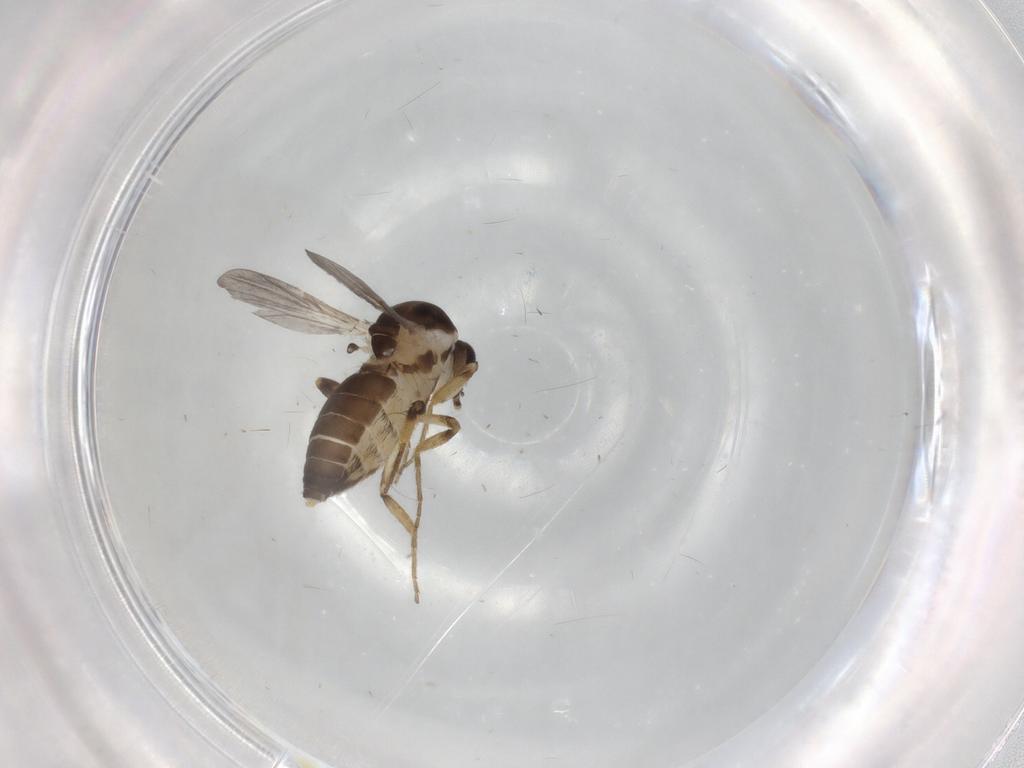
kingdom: Animalia
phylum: Arthropoda
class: Insecta
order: Diptera
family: Ceratopogonidae
